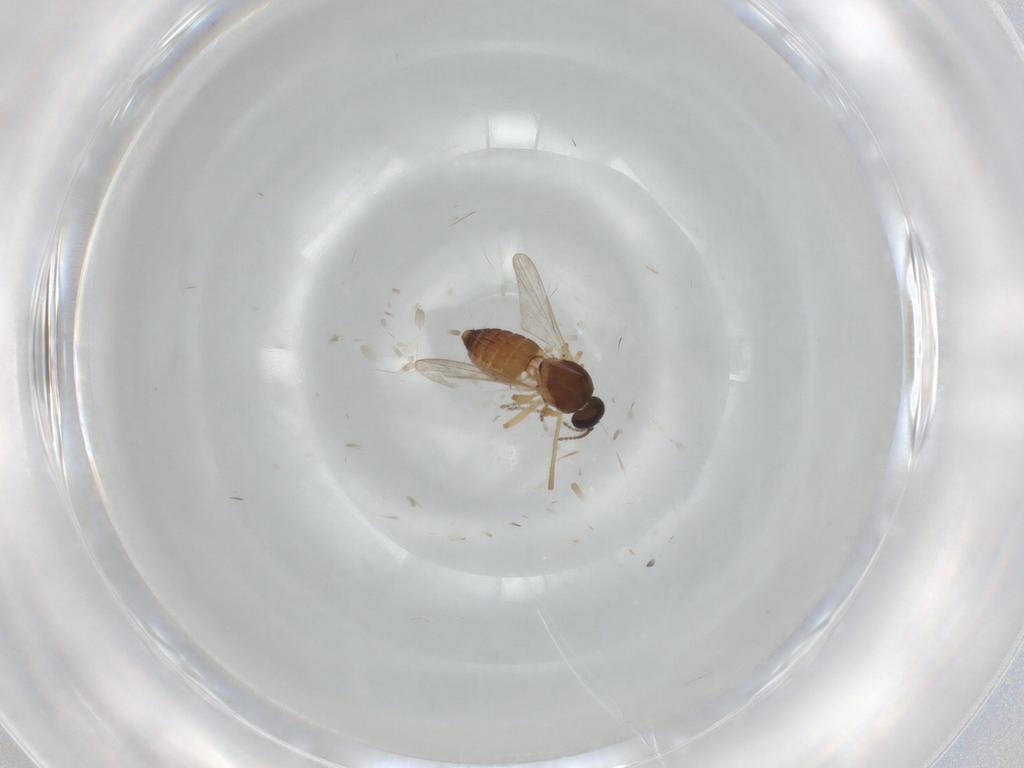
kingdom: Animalia
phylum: Arthropoda
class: Insecta
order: Diptera
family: Ceratopogonidae
